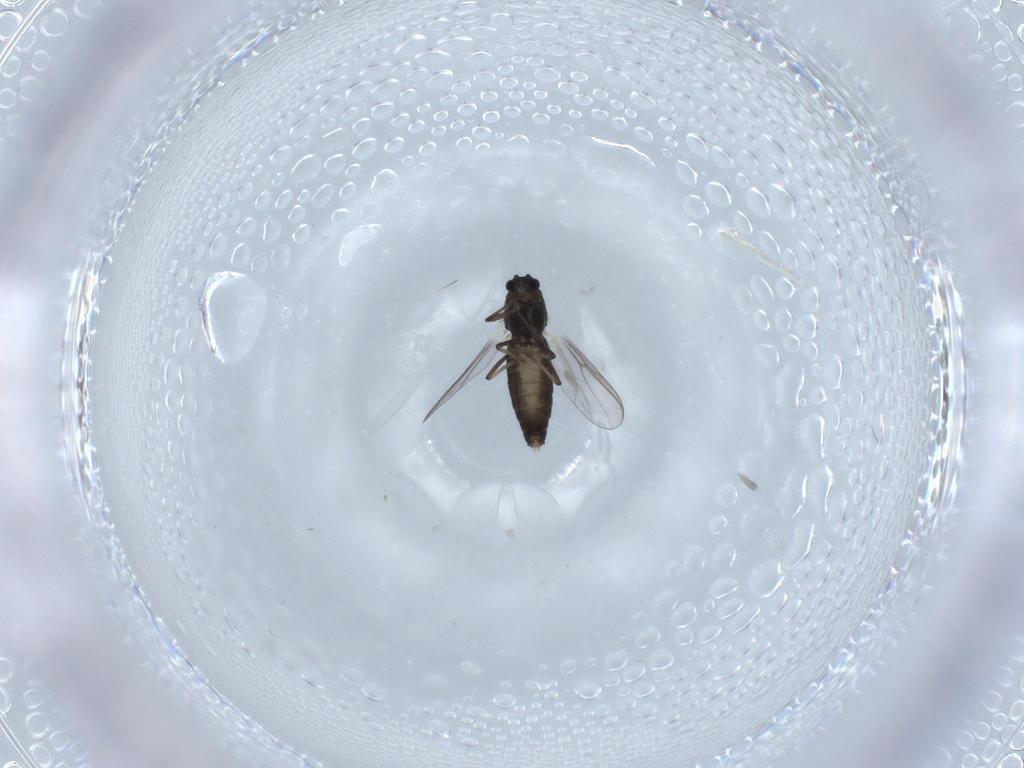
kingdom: Animalia
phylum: Arthropoda
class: Insecta
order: Diptera
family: Chironomidae
